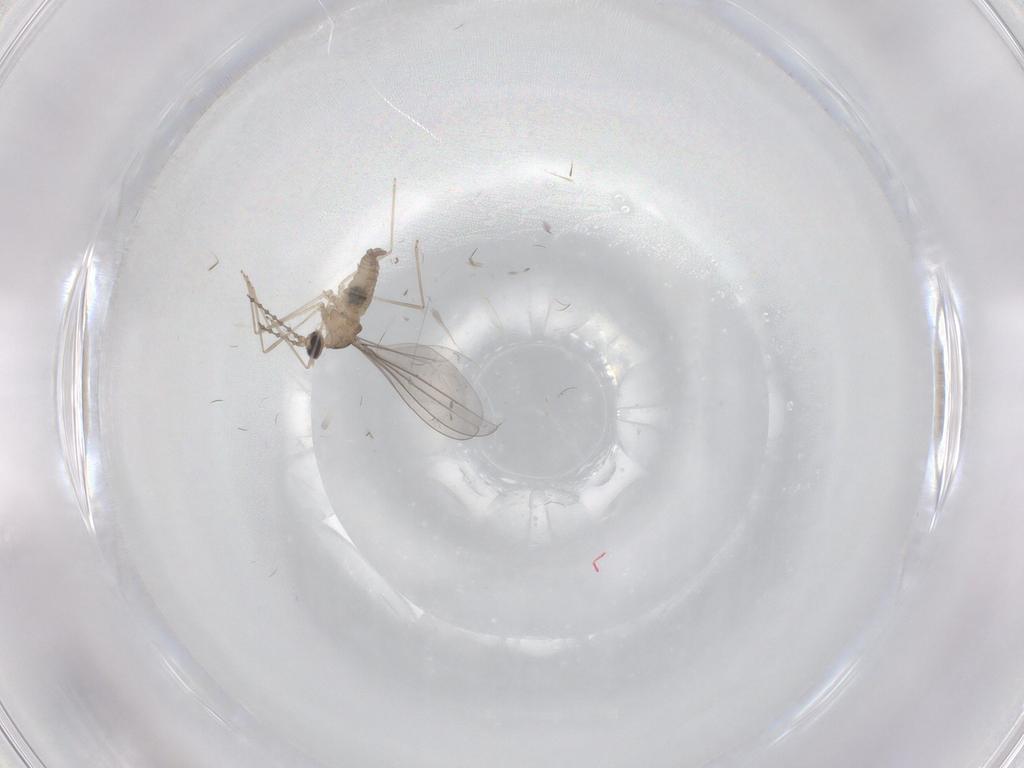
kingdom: Animalia
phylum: Arthropoda
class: Insecta
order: Diptera
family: Cecidomyiidae
